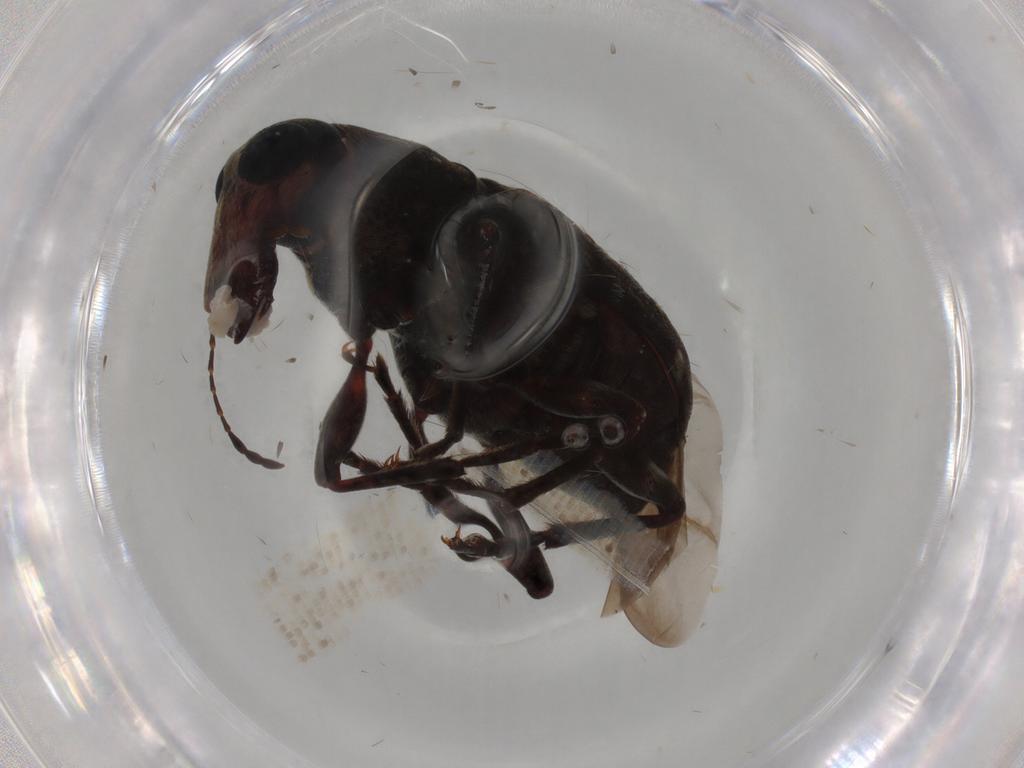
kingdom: Animalia
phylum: Arthropoda
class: Insecta
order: Coleoptera
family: Anthribidae
